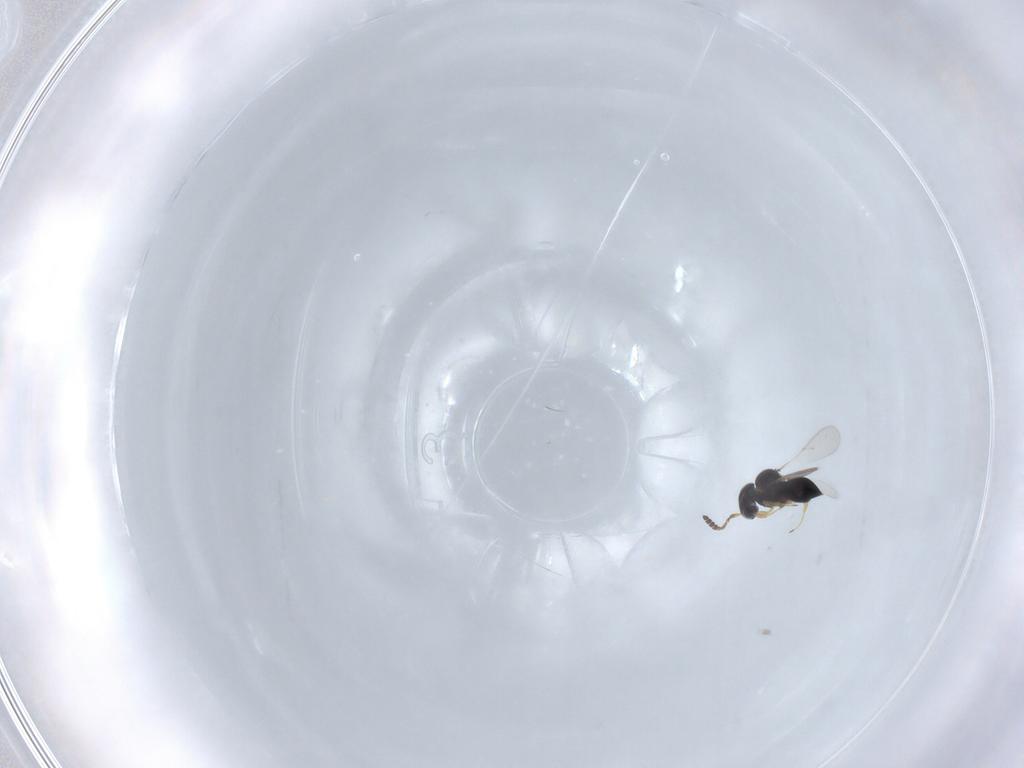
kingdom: Animalia
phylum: Arthropoda
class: Insecta
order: Hymenoptera
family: Scelionidae
